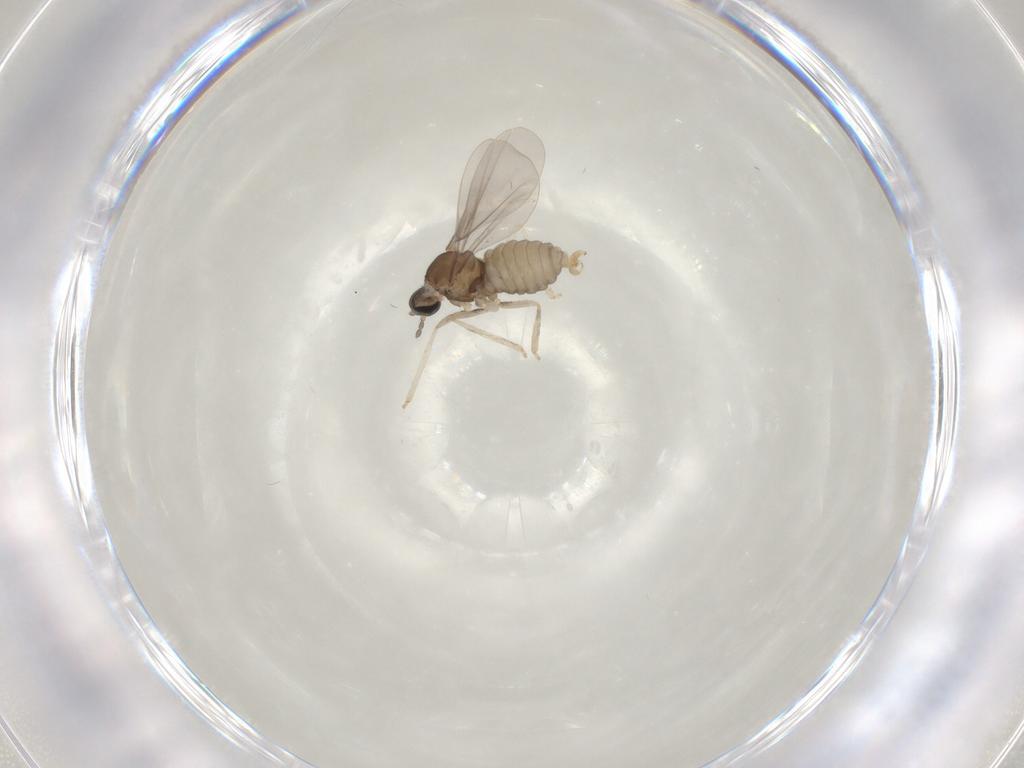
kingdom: Animalia
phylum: Arthropoda
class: Insecta
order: Diptera
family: Cecidomyiidae
